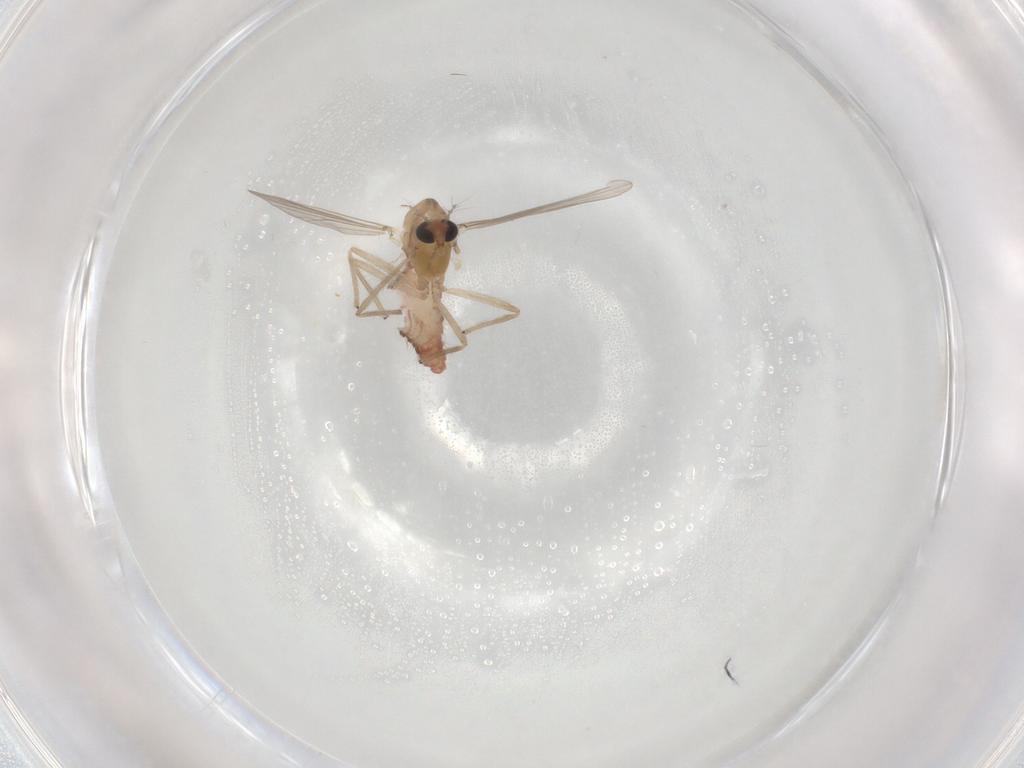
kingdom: Animalia
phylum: Arthropoda
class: Insecta
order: Diptera
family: Chironomidae
